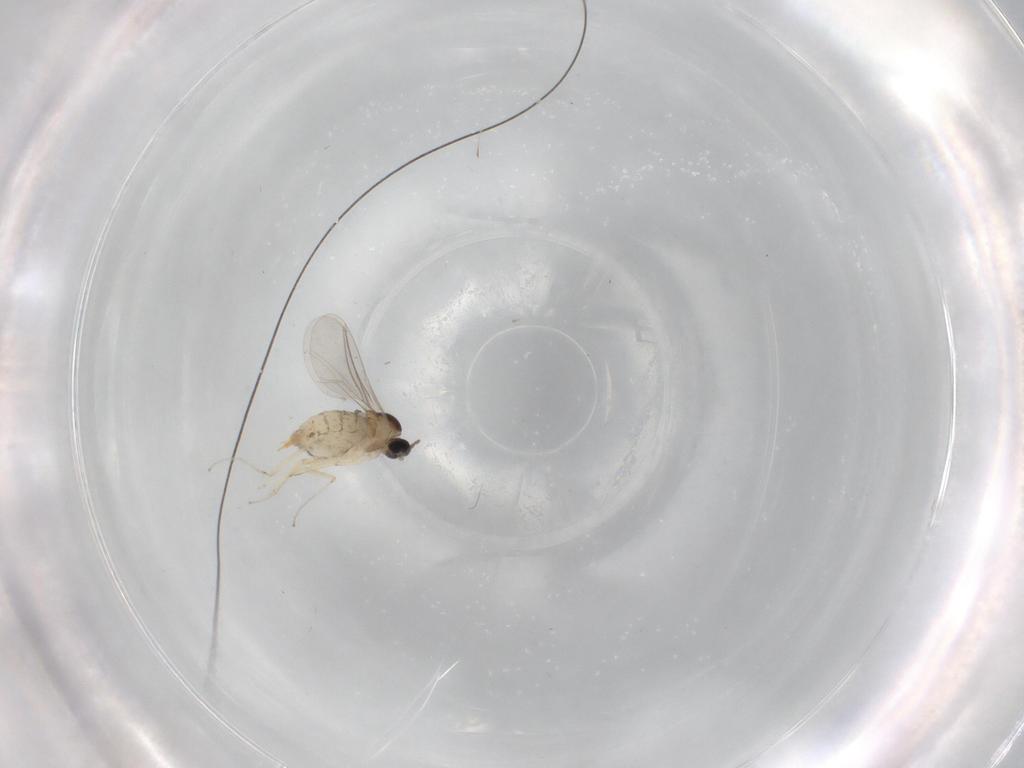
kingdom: Animalia
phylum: Arthropoda
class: Insecta
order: Diptera
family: Cecidomyiidae
